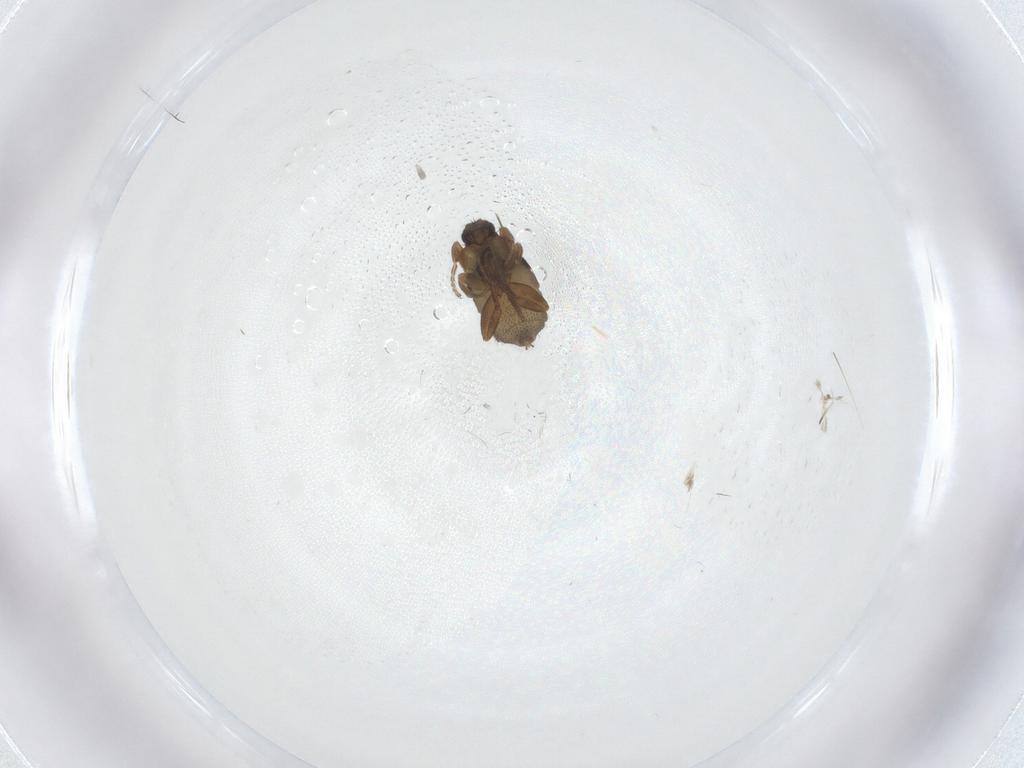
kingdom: Animalia
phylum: Arthropoda
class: Insecta
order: Diptera
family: Phoridae
